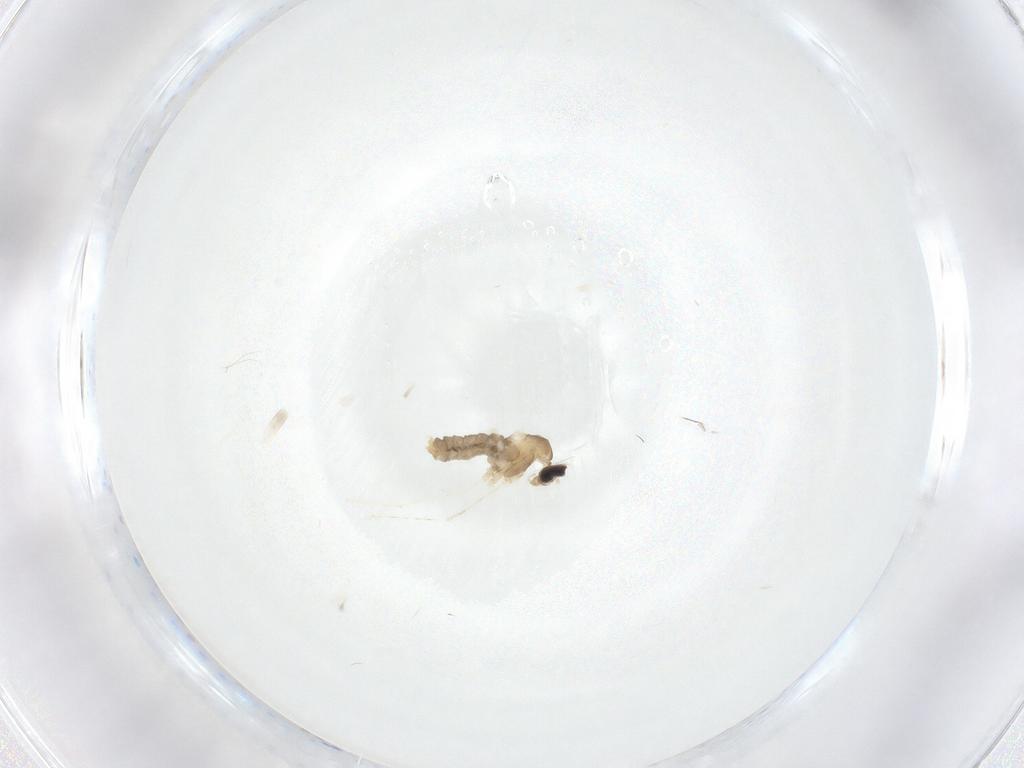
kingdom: Animalia
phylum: Arthropoda
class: Insecta
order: Diptera
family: Cecidomyiidae
